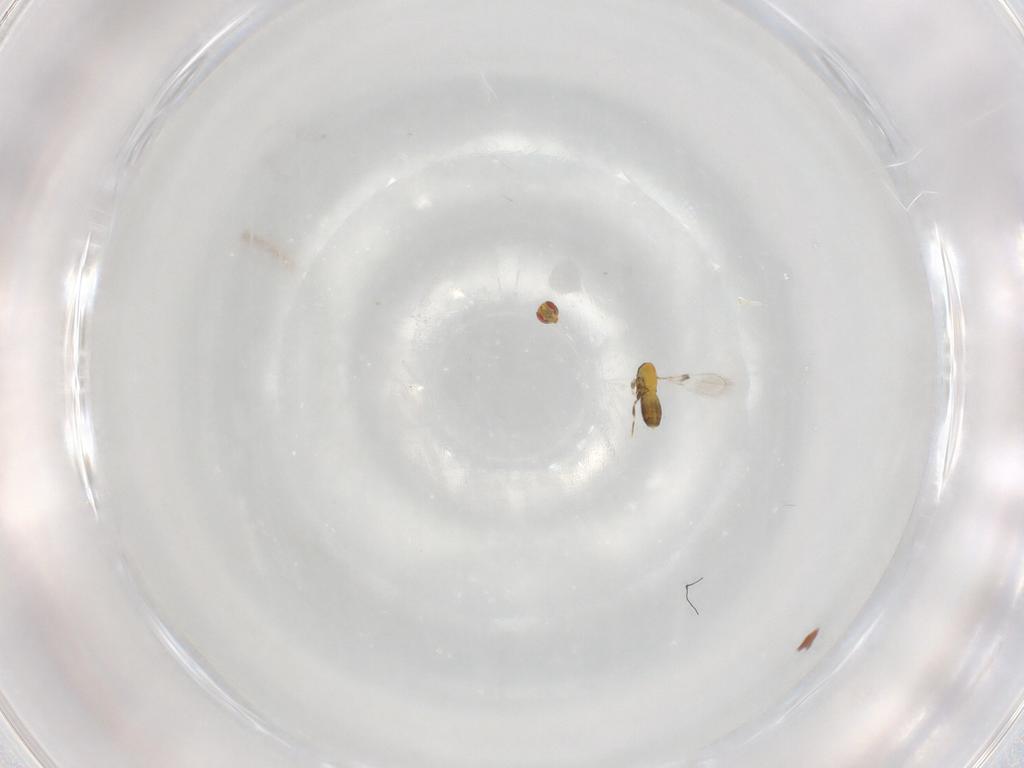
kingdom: Animalia
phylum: Arthropoda
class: Insecta
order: Hymenoptera
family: Trichogrammatidae
